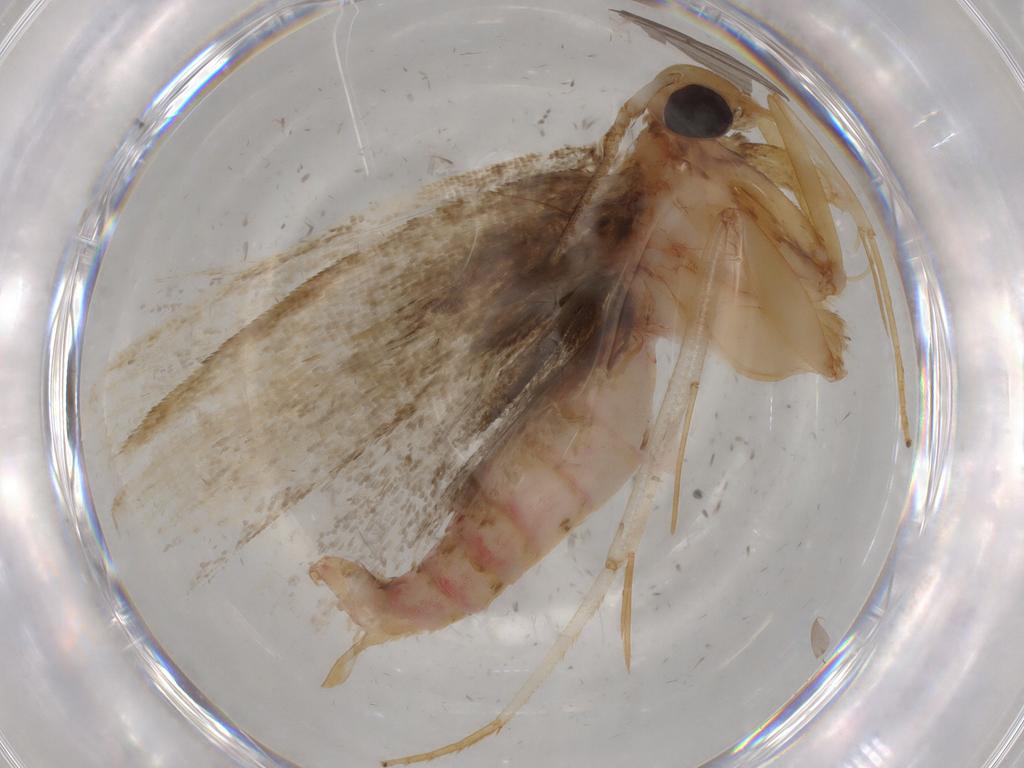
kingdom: Animalia
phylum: Arthropoda
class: Insecta
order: Lepidoptera
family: Autostichidae
